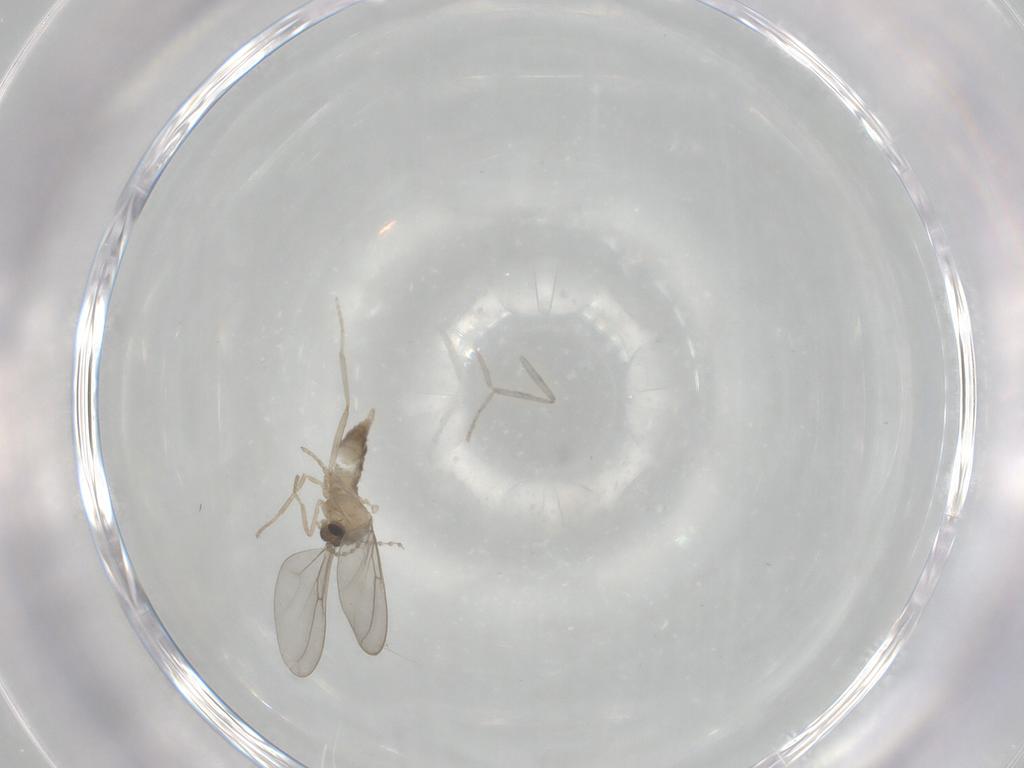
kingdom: Animalia
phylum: Arthropoda
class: Insecta
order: Diptera
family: Cecidomyiidae
